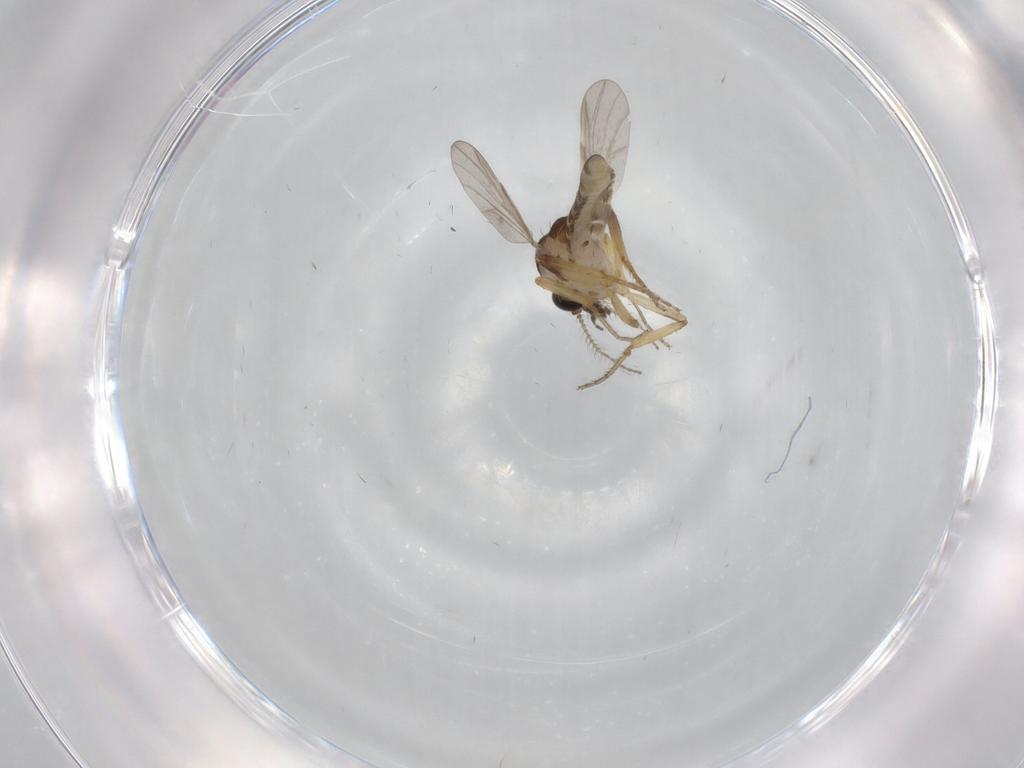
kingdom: Animalia
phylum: Arthropoda
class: Insecta
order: Diptera
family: Ceratopogonidae
